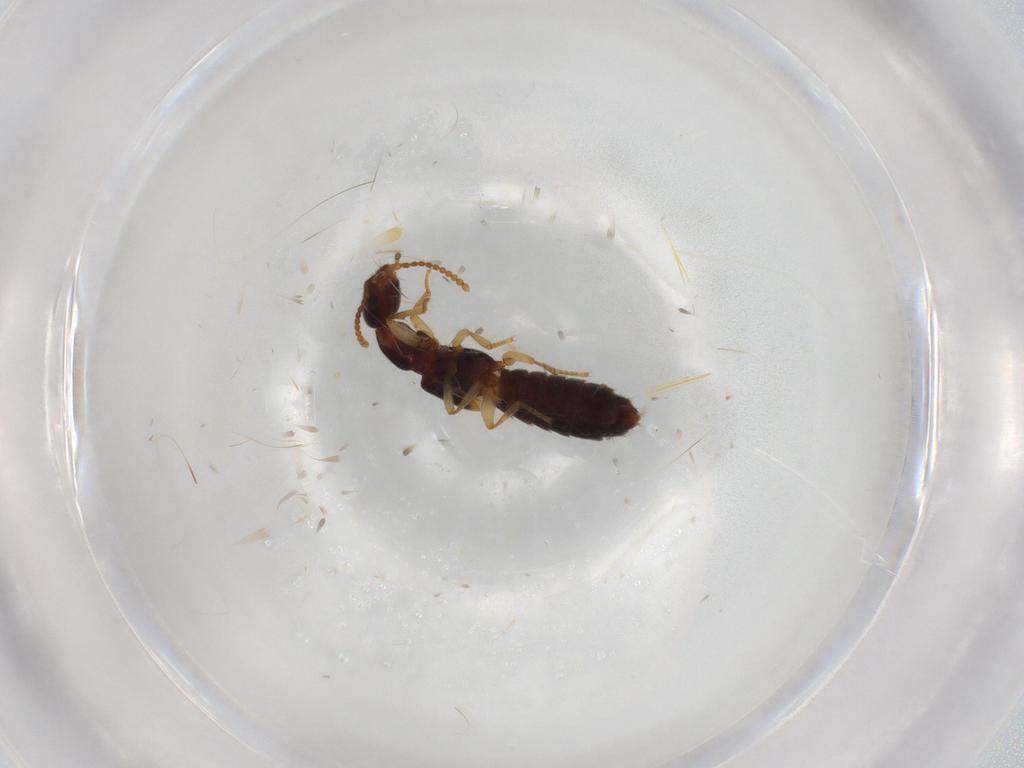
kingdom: Animalia
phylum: Arthropoda
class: Insecta
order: Coleoptera
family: Staphylinidae
